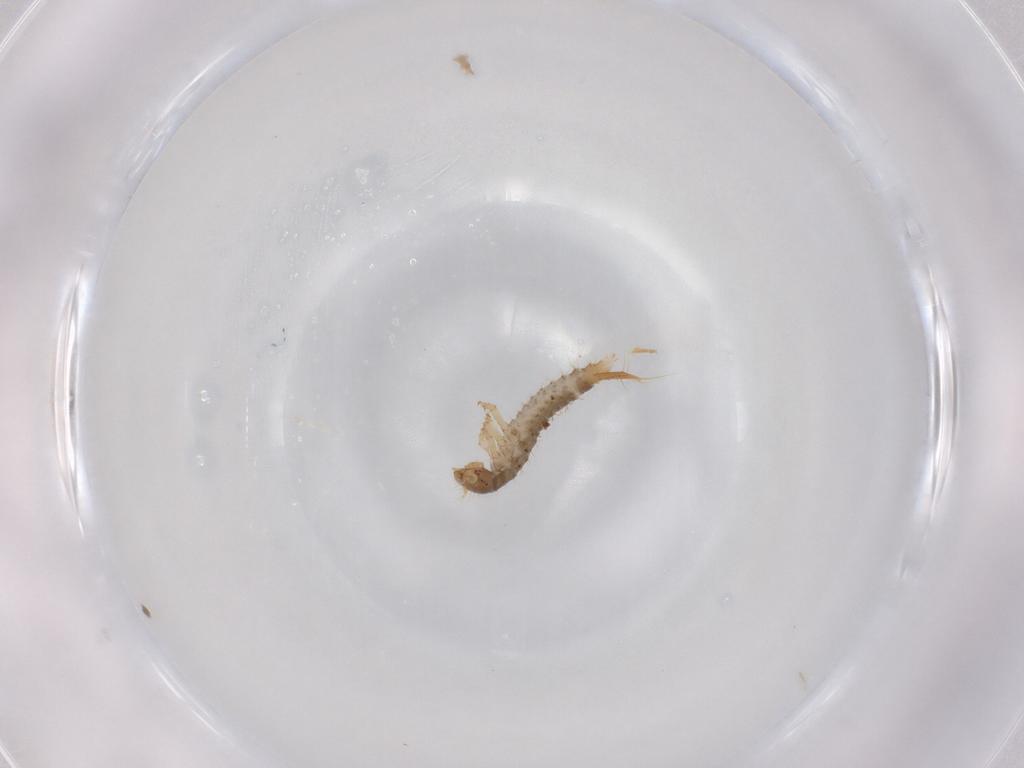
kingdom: Animalia
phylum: Arthropoda
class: Insecta
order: Coleoptera
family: Staphylinidae
